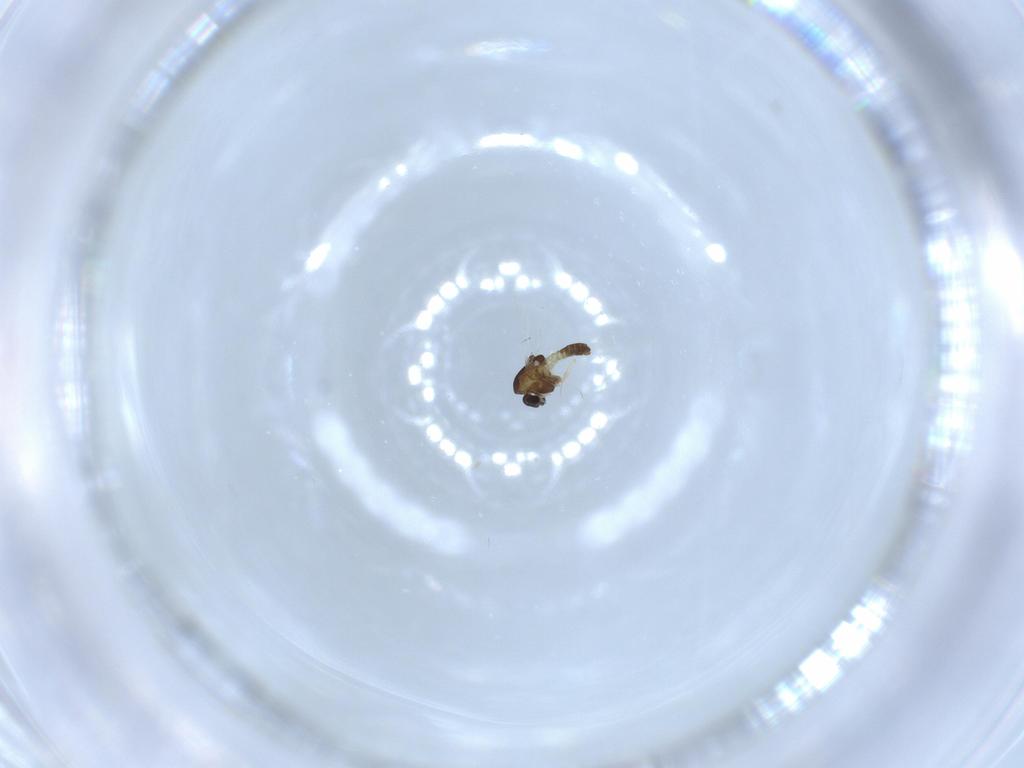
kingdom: Animalia
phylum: Arthropoda
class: Insecta
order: Diptera
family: Chironomidae
